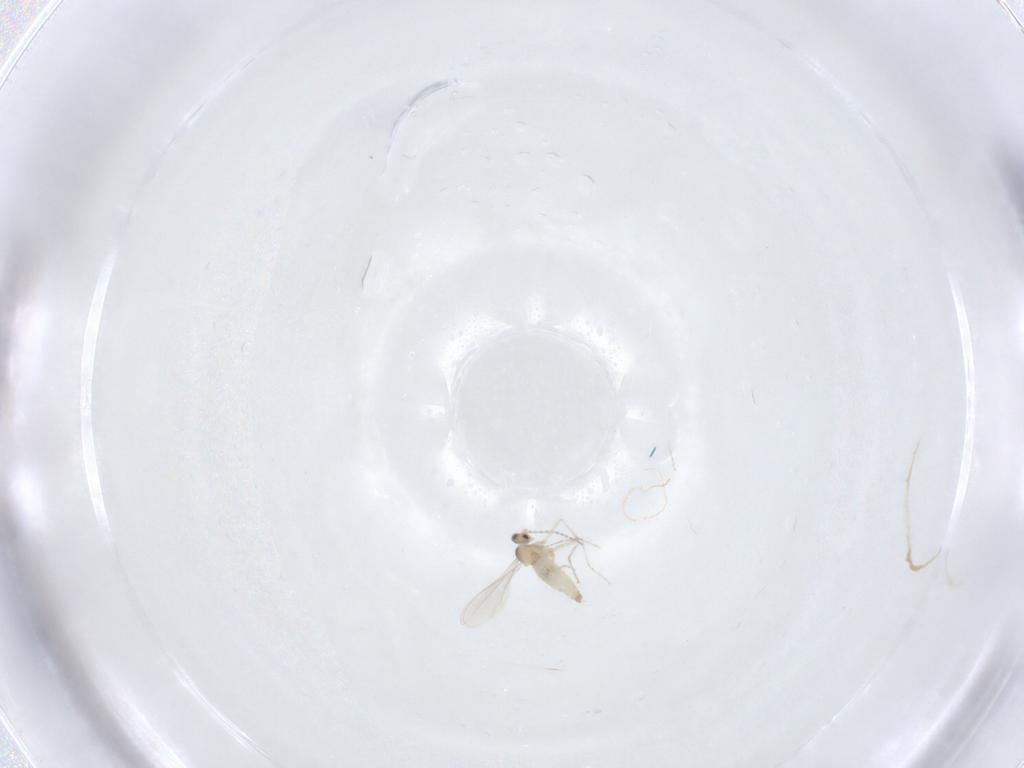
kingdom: Animalia
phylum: Arthropoda
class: Insecta
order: Diptera
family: Cecidomyiidae
